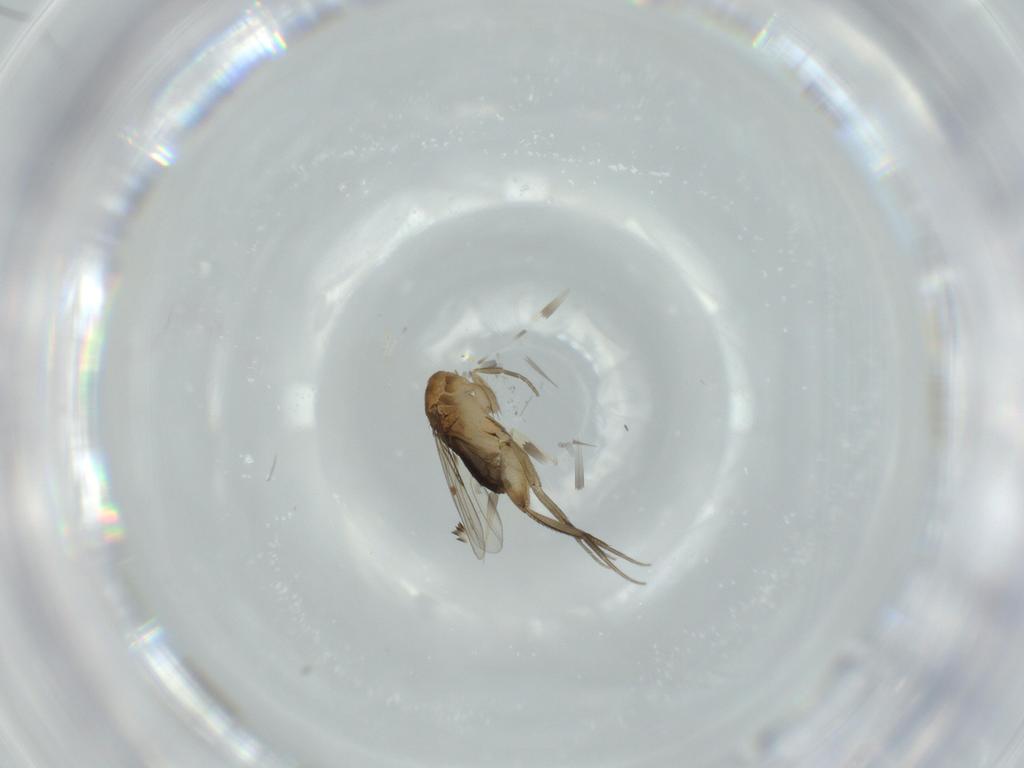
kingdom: Animalia
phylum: Arthropoda
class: Insecta
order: Diptera
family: Phoridae
